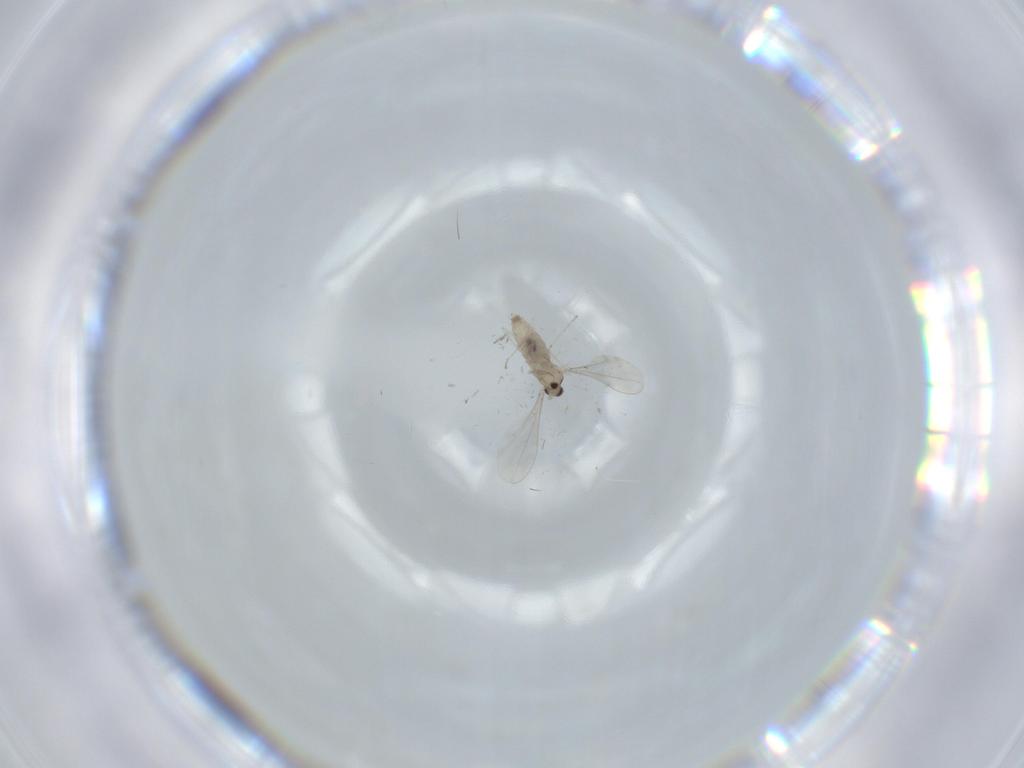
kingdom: Animalia
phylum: Arthropoda
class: Insecta
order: Diptera
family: Cecidomyiidae
